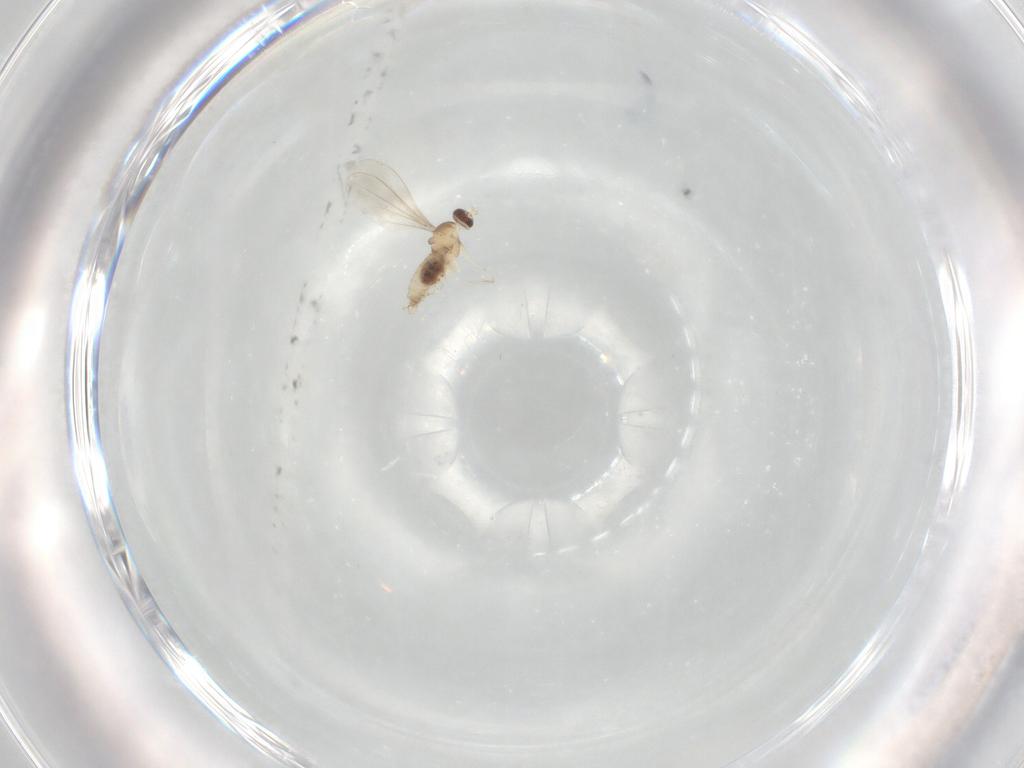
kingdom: Animalia
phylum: Arthropoda
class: Insecta
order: Diptera
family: Cecidomyiidae
